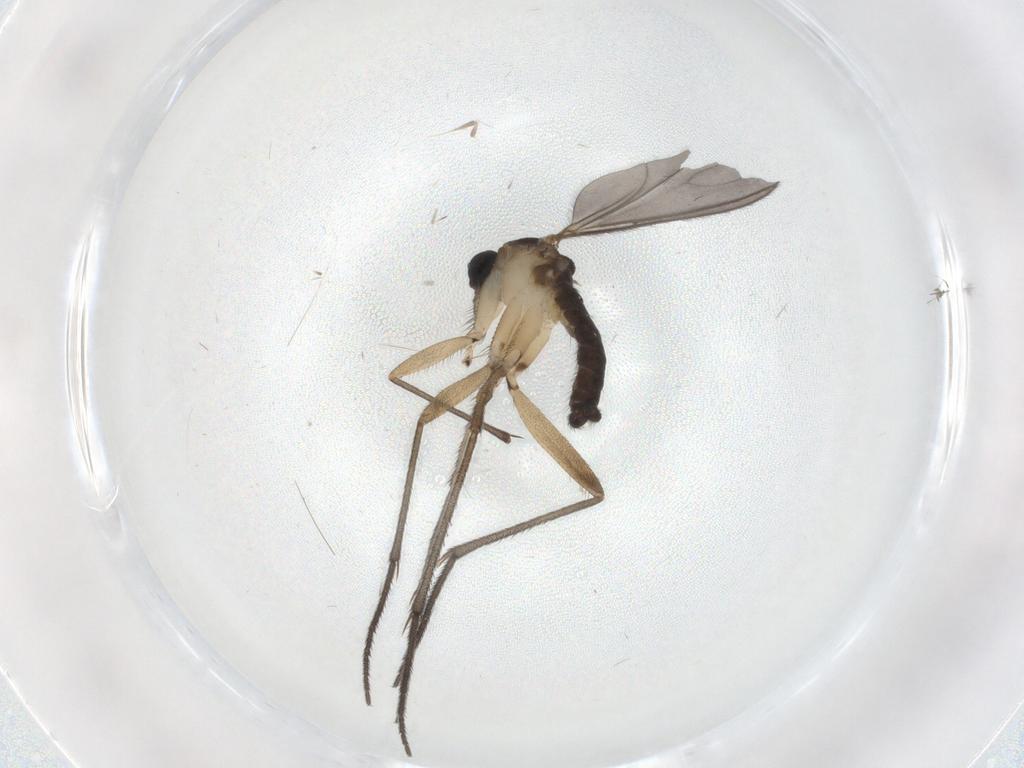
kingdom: Animalia
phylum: Arthropoda
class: Insecta
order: Diptera
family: Sciaridae
